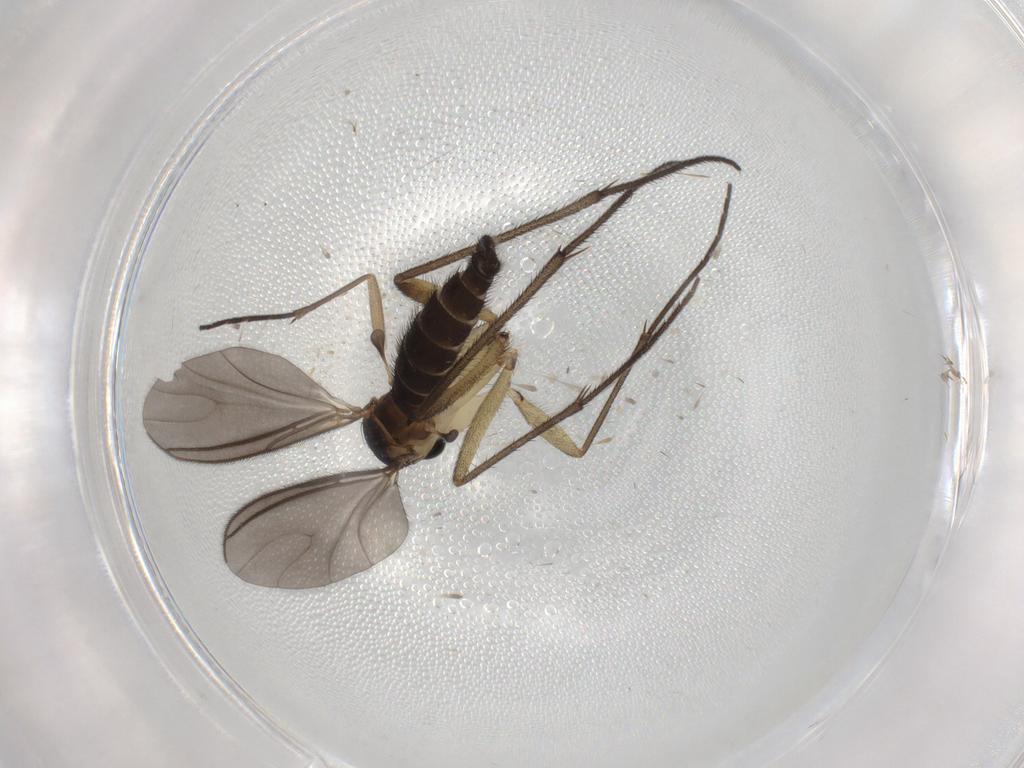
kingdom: Animalia
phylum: Arthropoda
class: Insecta
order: Diptera
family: Sciaridae
